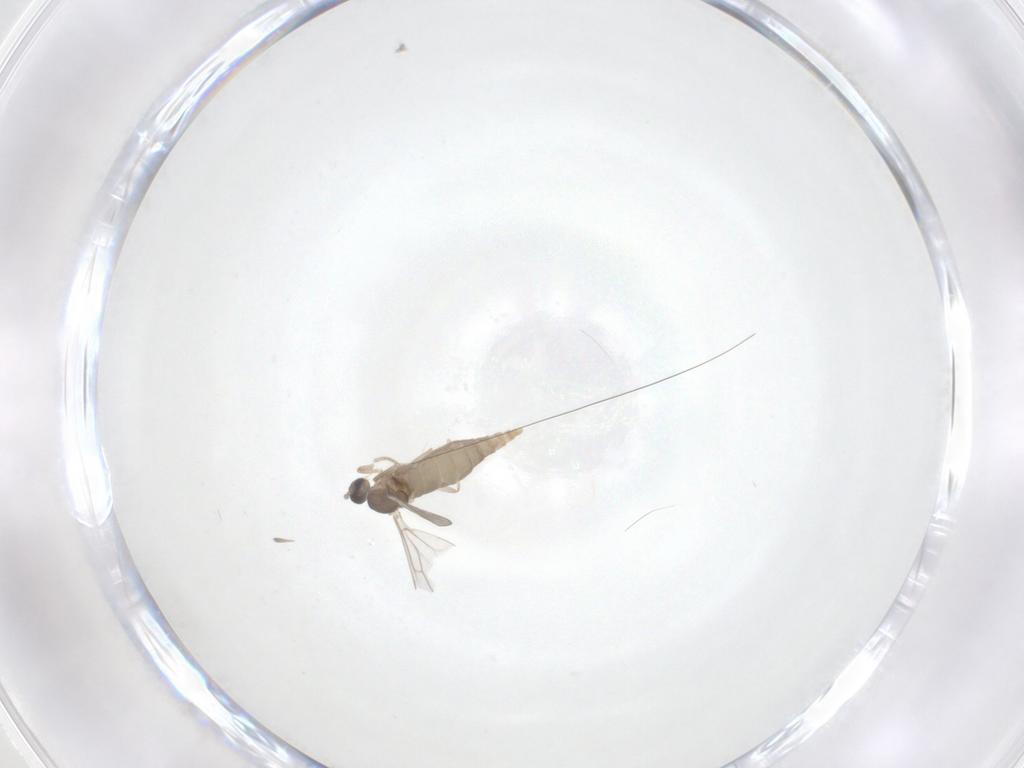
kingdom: Animalia
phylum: Arthropoda
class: Insecta
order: Diptera
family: Cecidomyiidae
